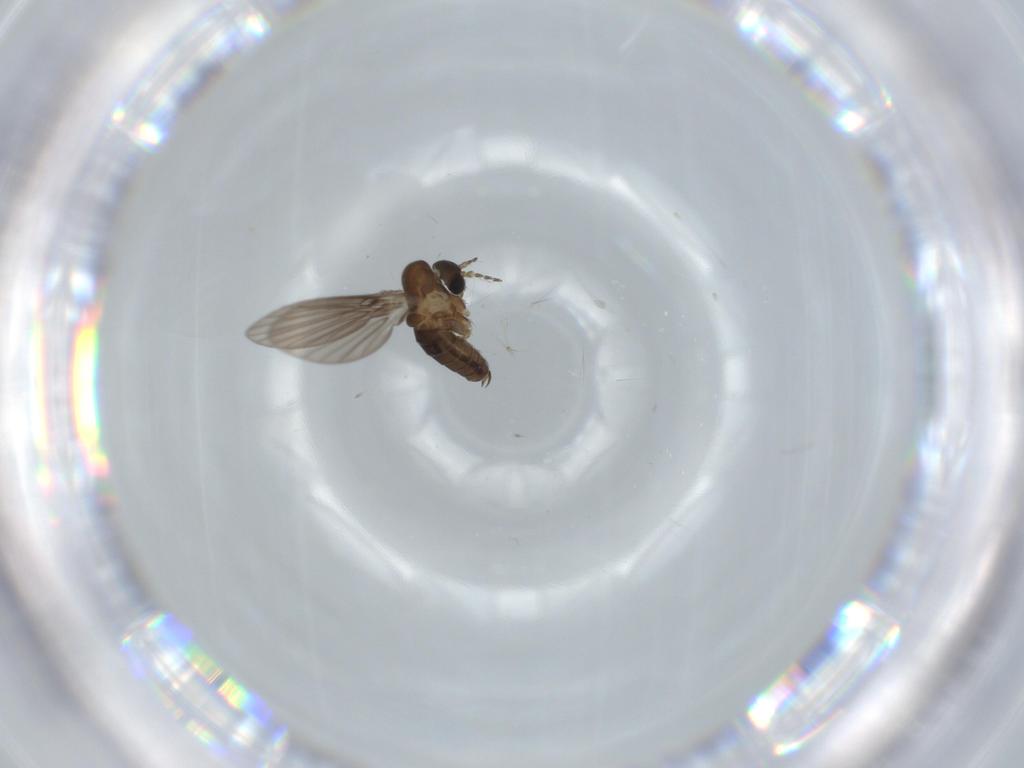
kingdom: Animalia
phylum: Arthropoda
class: Insecta
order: Diptera
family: Psychodidae
